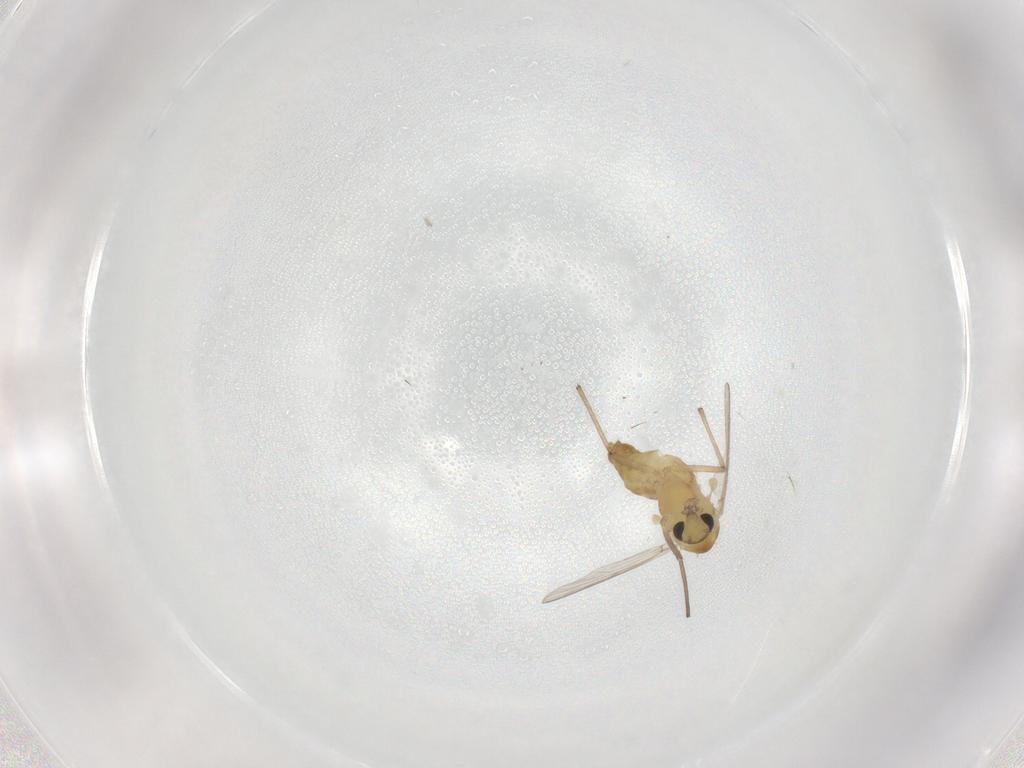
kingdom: Animalia
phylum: Arthropoda
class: Insecta
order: Diptera
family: Chironomidae
